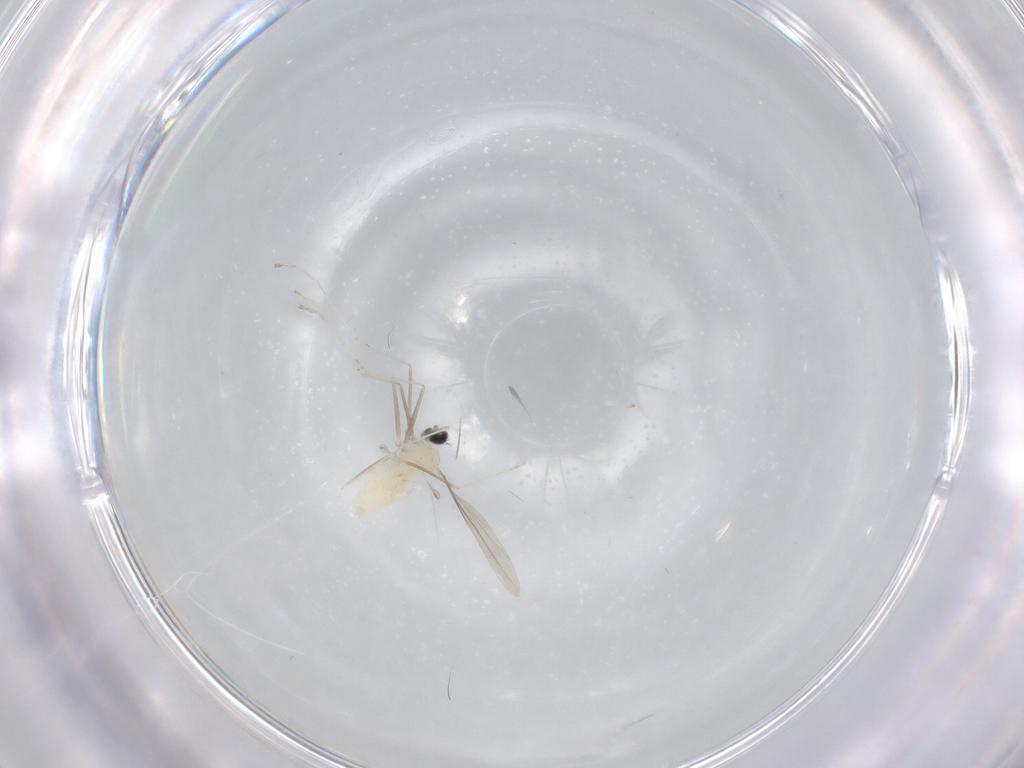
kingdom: Animalia
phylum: Arthropoda
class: Insecta
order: Diptera
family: Cecidomyiidae
